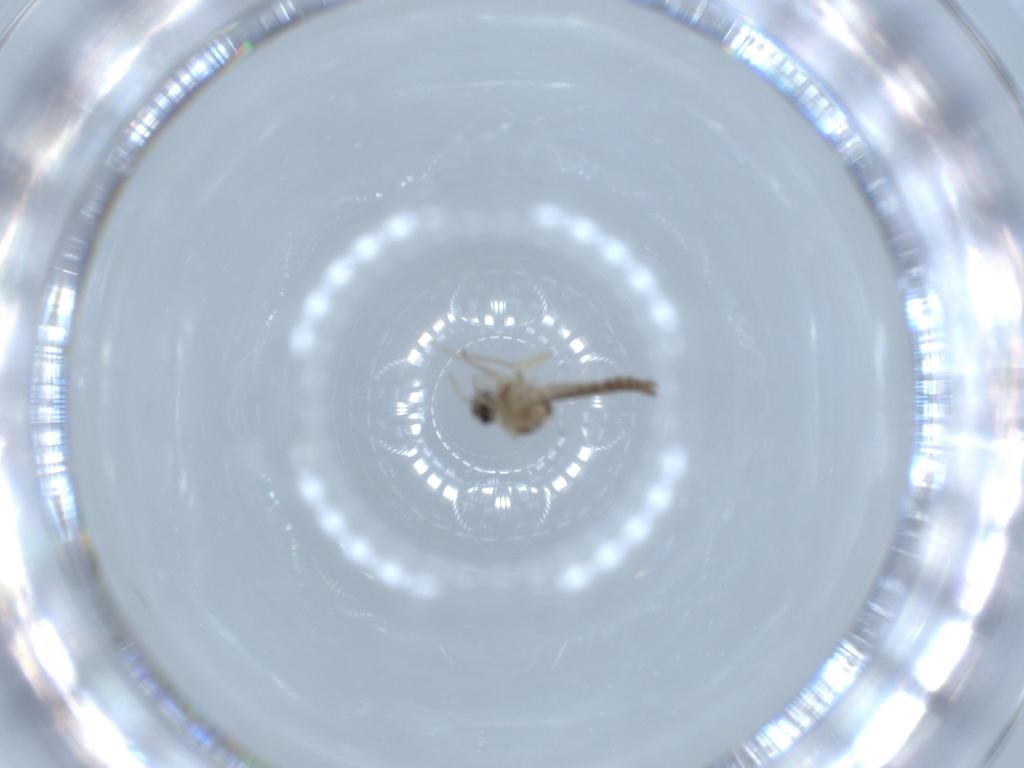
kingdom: Animalia
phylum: Arthropoda
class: Insecta
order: Diptera
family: Ceratopogonidae
